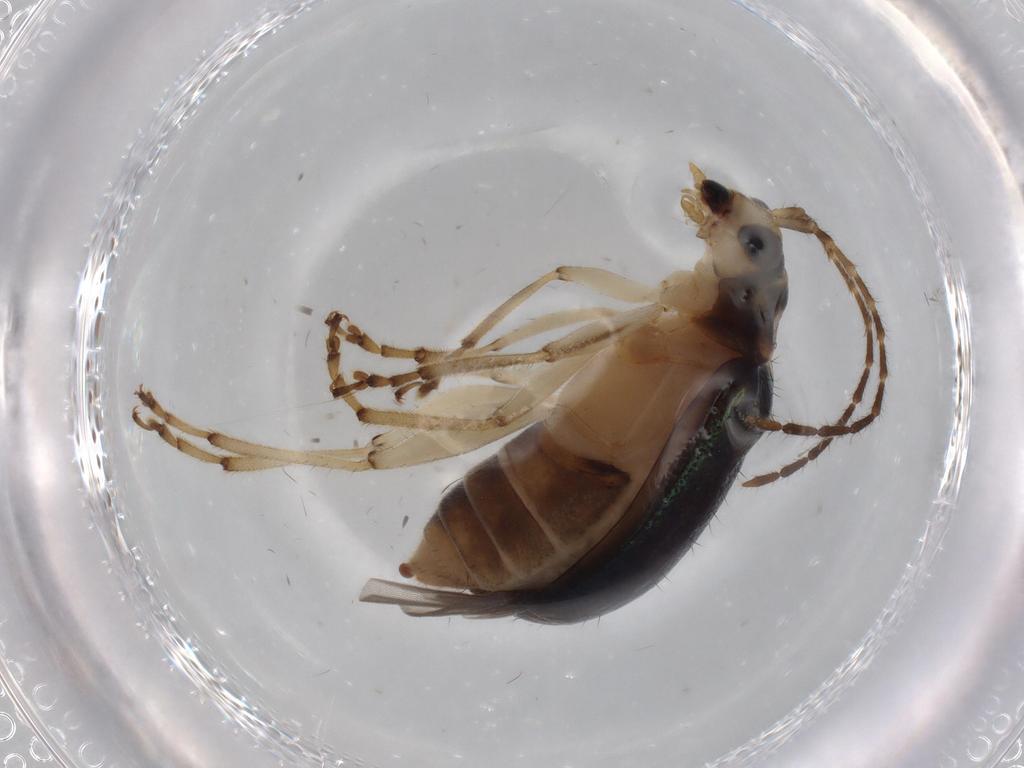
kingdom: Animalia
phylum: Arthropoda
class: Insecta
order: Coleoptera
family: Chrysomelidae
